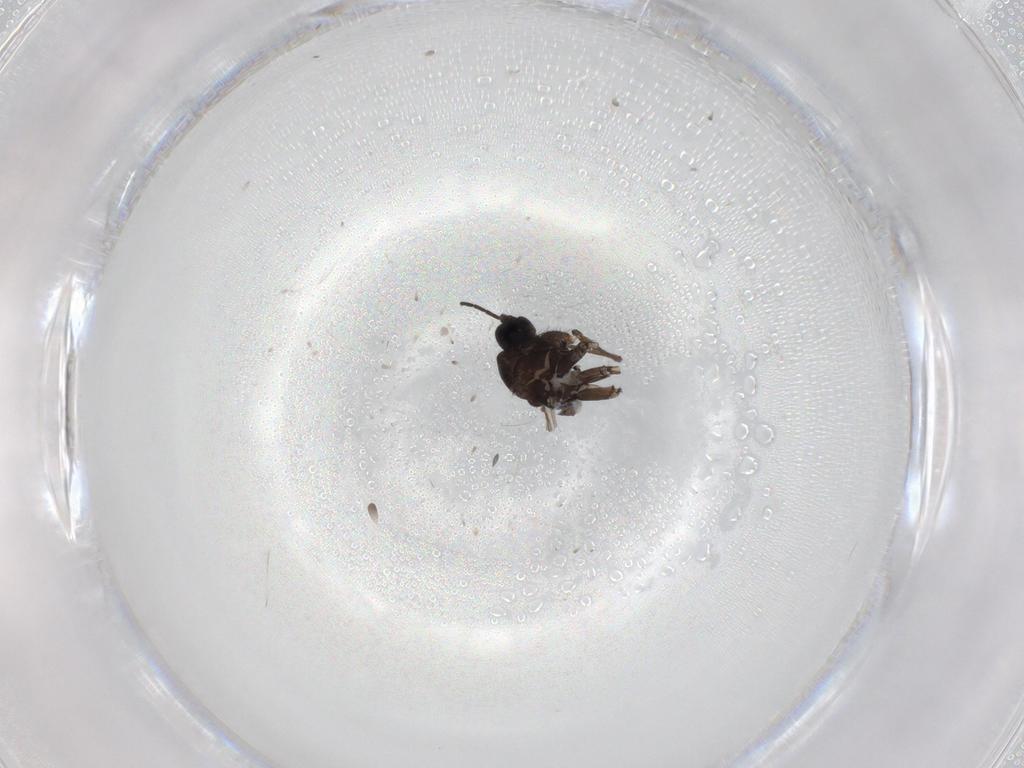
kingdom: Animalia
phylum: Arthropoda
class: Insecta
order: Diptera
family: Sciaridae
